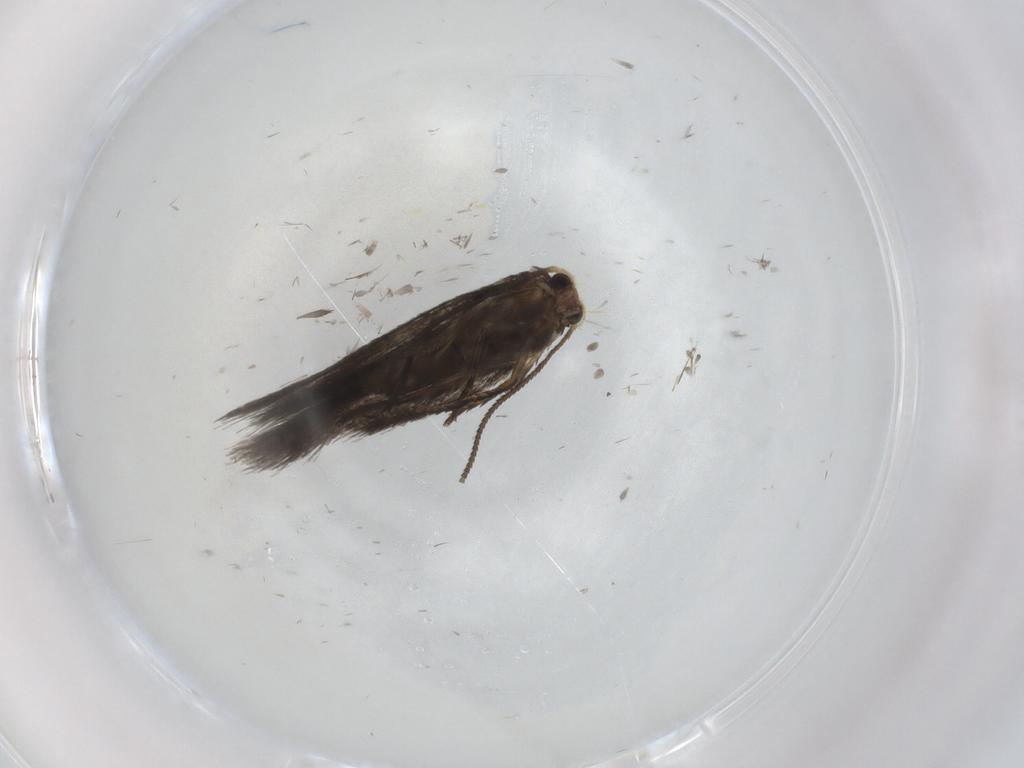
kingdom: Animalia
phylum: Arthropoda
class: Insecta
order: Lepidoptera
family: Nepticulidae
